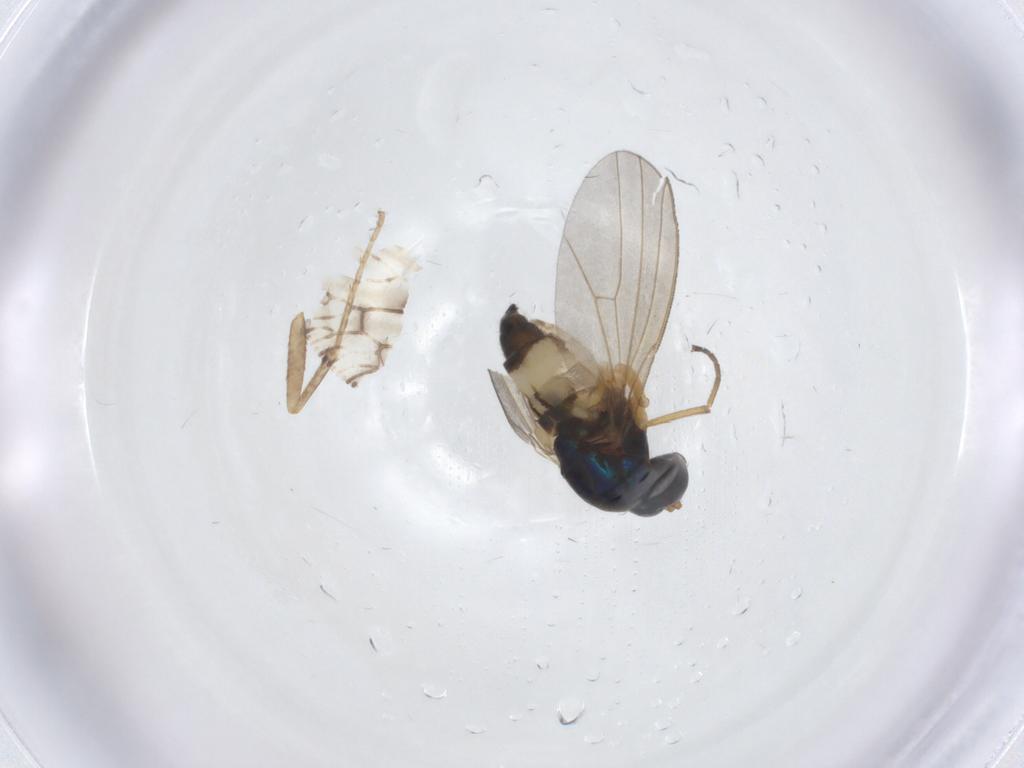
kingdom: Animalia
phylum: Arthropoda
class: Insecta
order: Diptera
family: Dolichopodidae
